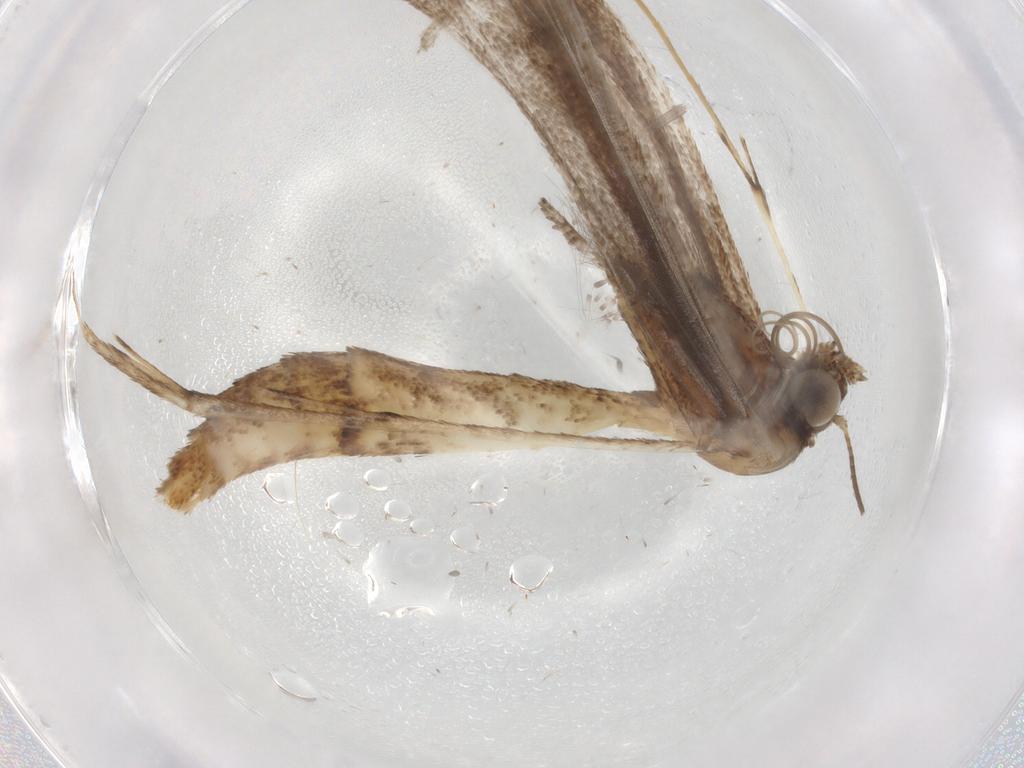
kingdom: Animalia
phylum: Arthropoda
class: Insecta
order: Lepidoptera
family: Pterophoridae
